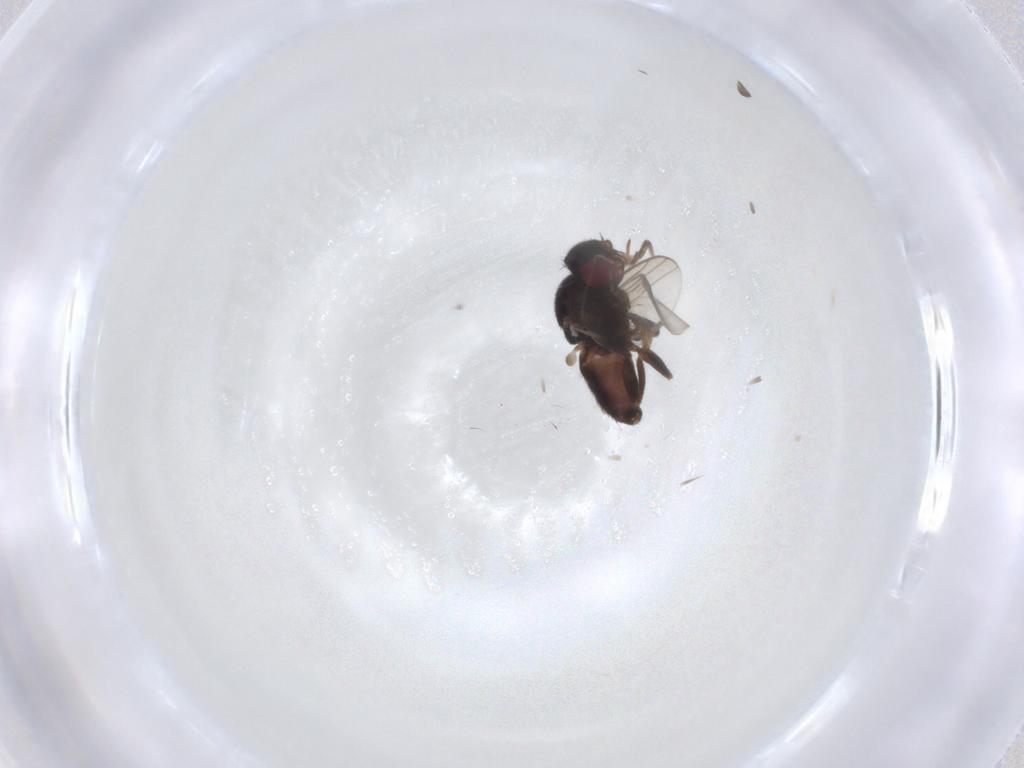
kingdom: Animalia
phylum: Arthropoda
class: Insecta
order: Diptera
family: Chloropidae
